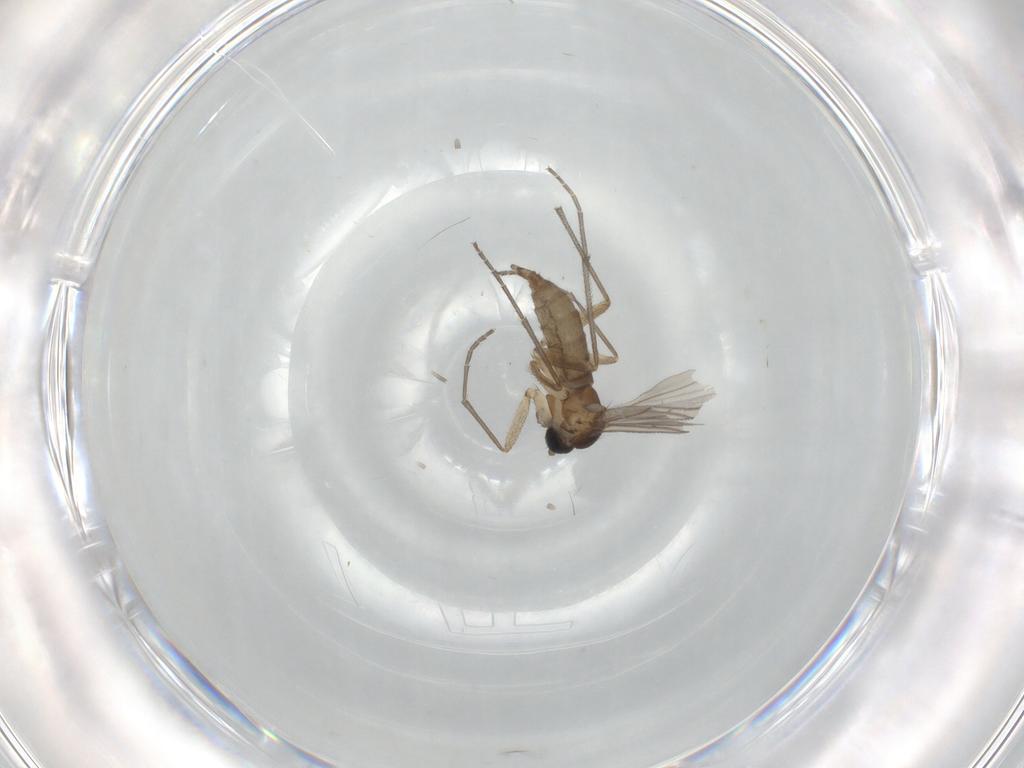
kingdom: Animalia
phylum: Arthropoda
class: Insecta
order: Diptera
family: Sciaridae
